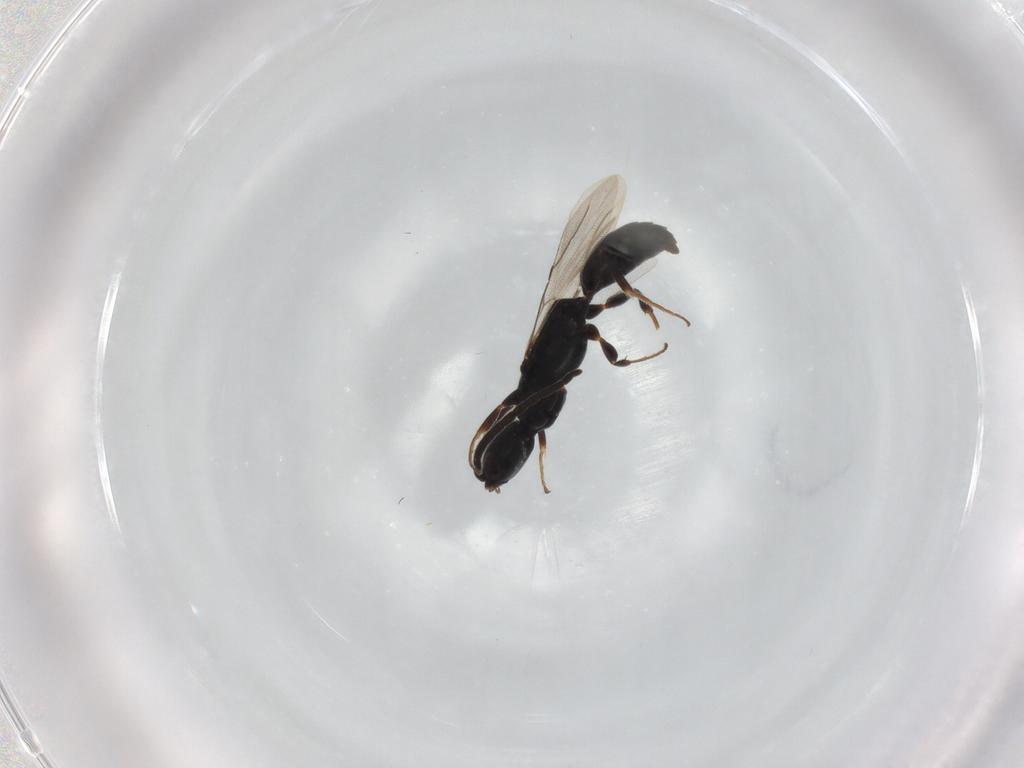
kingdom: Animalia
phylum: Arthropoda
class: Insecta
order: Hymenoptera
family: Bethylidae
